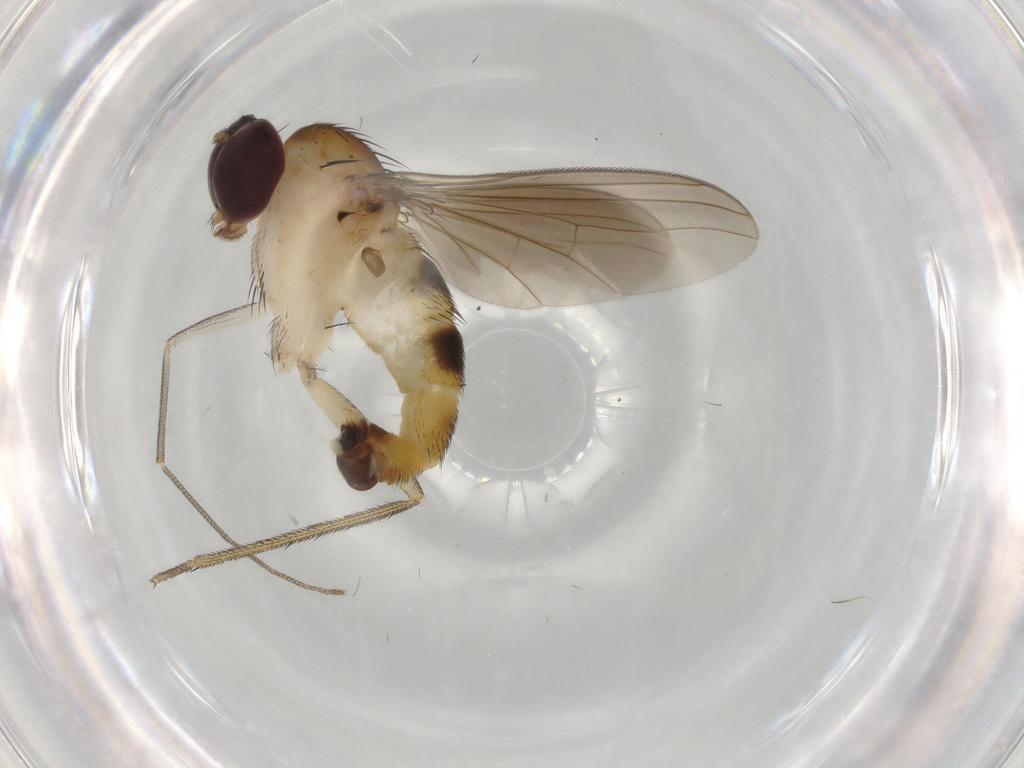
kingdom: Animalia
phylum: Arthropoda
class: Insecta
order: Diptera
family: Dolichopodidae
